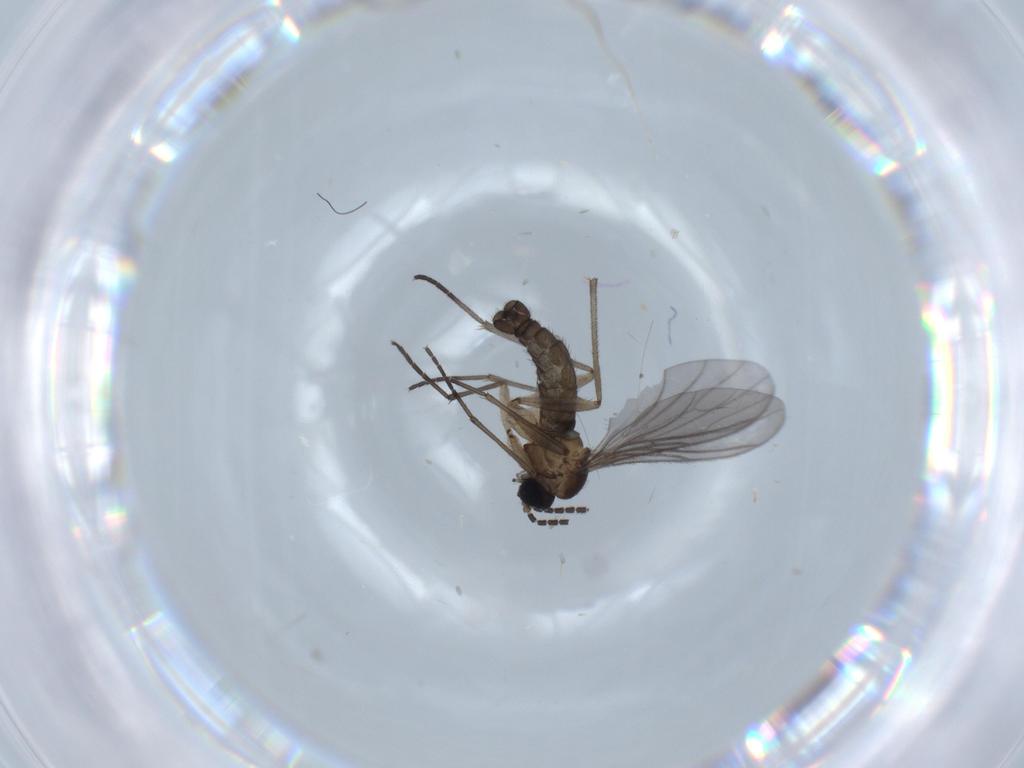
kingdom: Animalia
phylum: Arthropoda
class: Insecta
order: Diptera
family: Sciaridae
